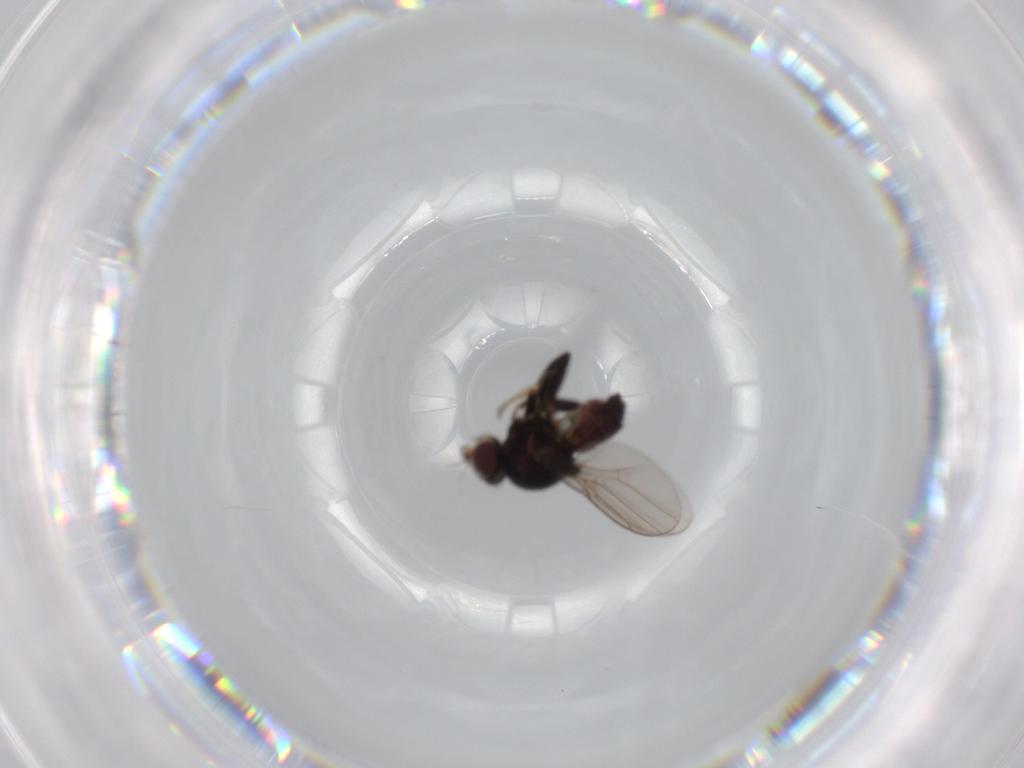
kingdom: Animalia
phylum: Arthropoda
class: Insecta
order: Diptera
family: Chloropidae
